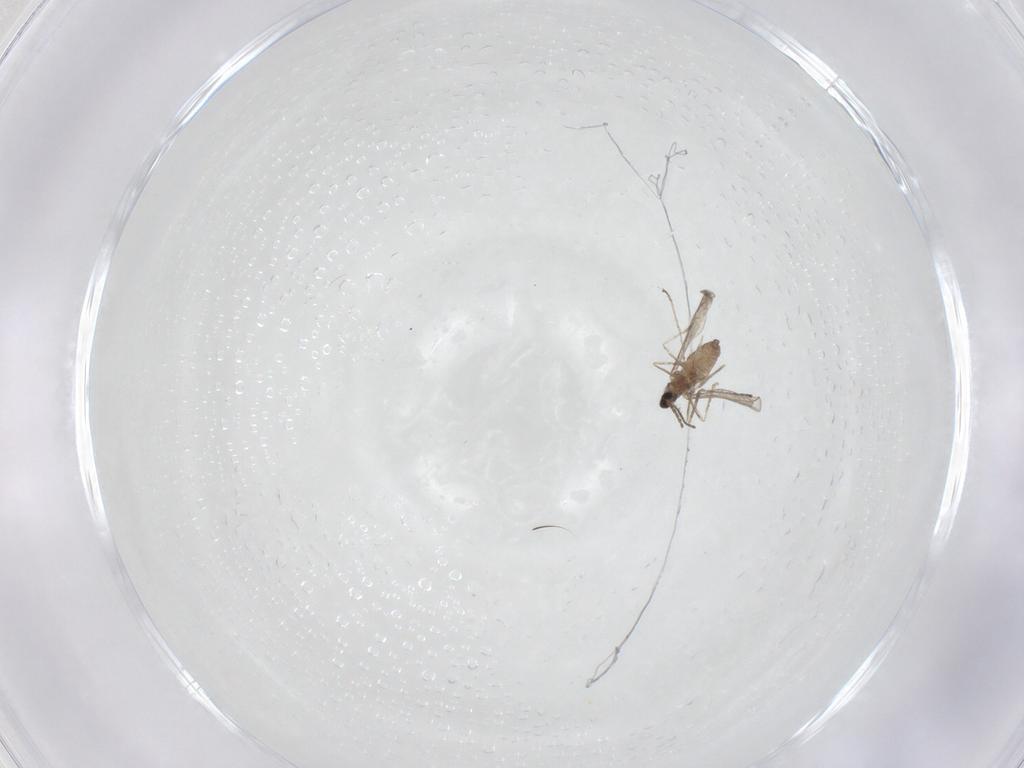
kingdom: Animalia
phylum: Arthropoda
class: Insecta
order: Diptera
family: Cecidomyiidae
